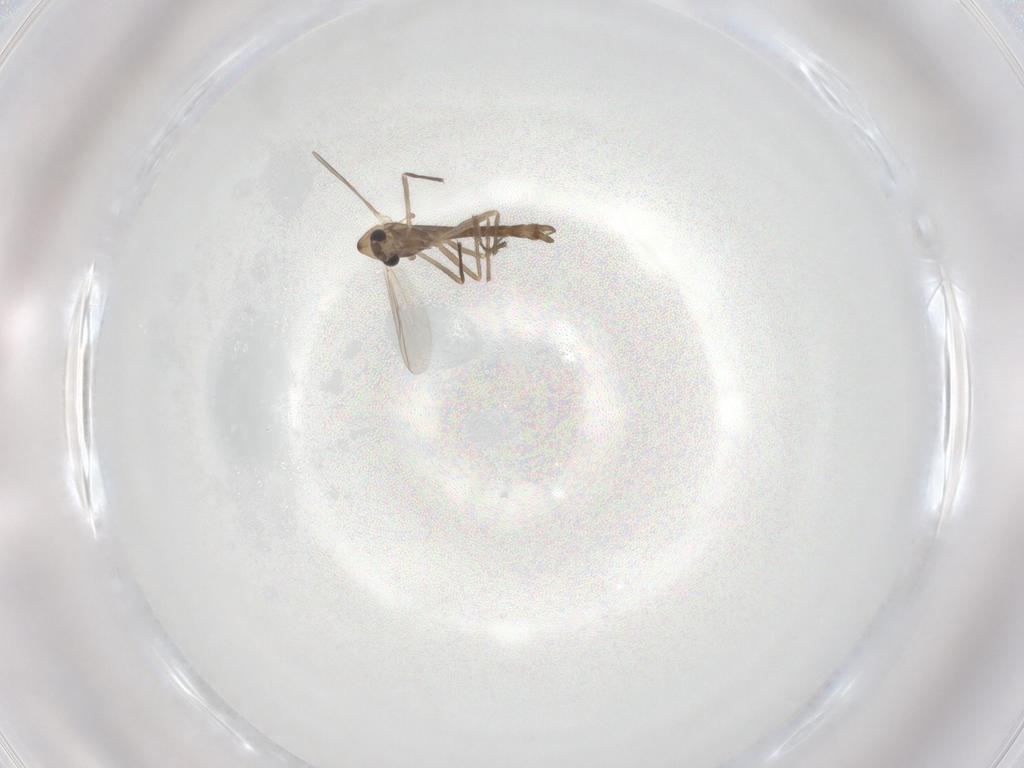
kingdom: Animalia
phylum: Arthropoda
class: Insecta
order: Diptera
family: Chironomidae
